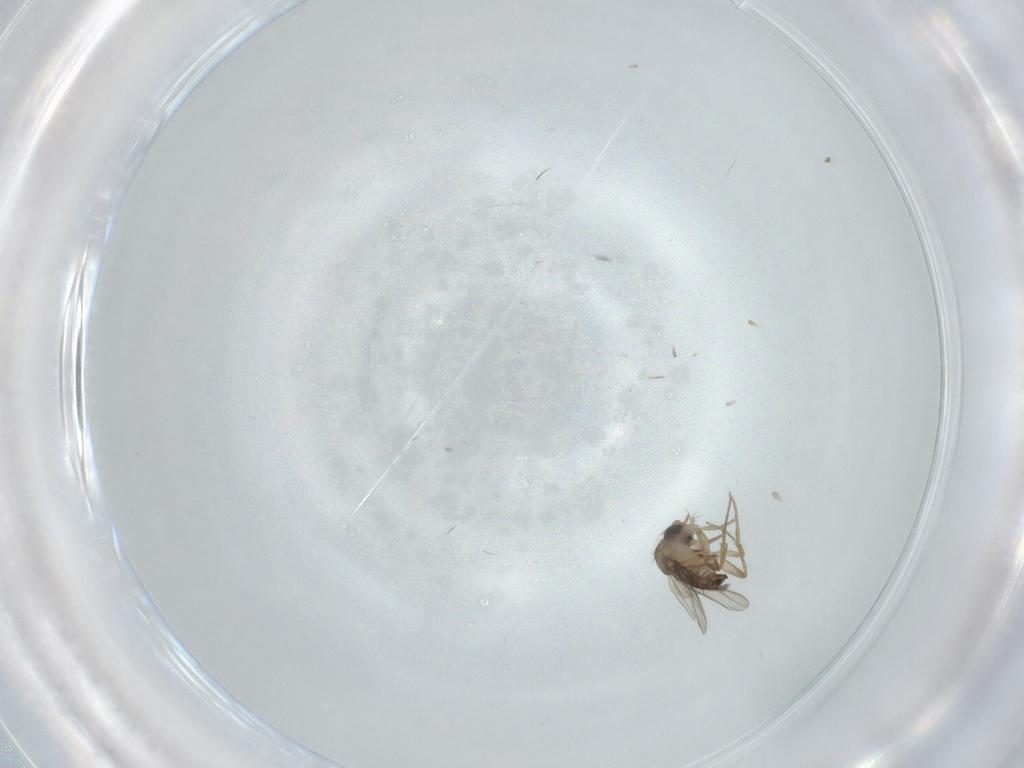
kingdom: Animalia
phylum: Arthropoda
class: Insecta
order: Diptera
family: Phoridae
